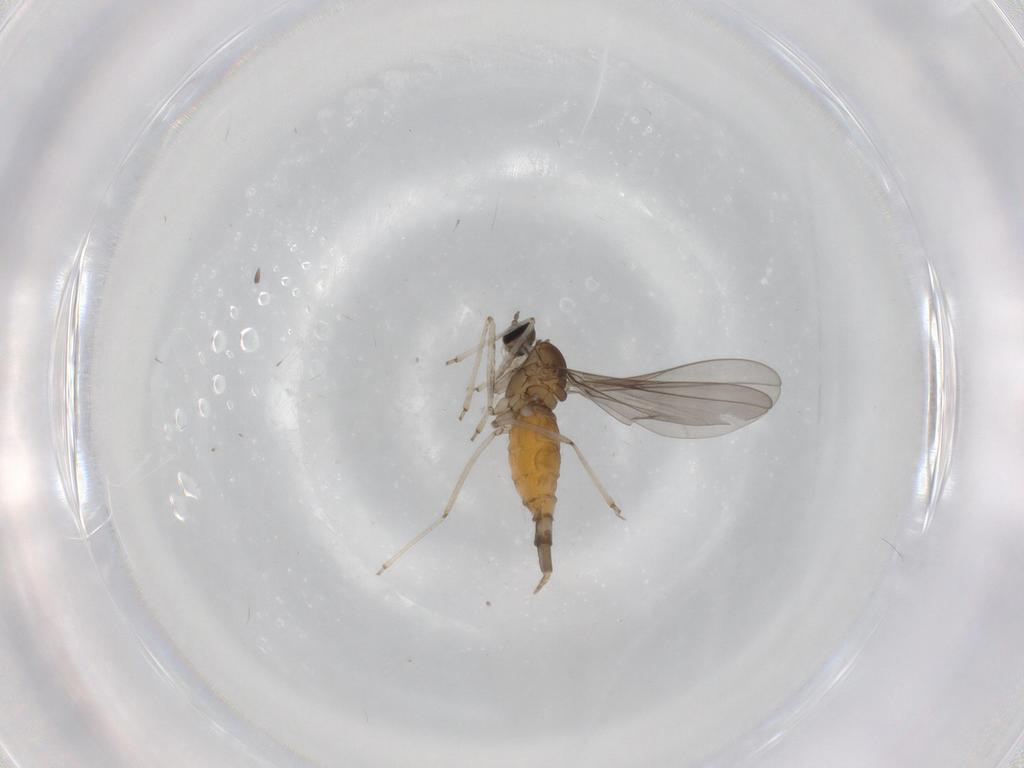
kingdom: Animalia
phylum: Arthropoda
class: Insecta
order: Diptera
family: Cecidomyiidae
